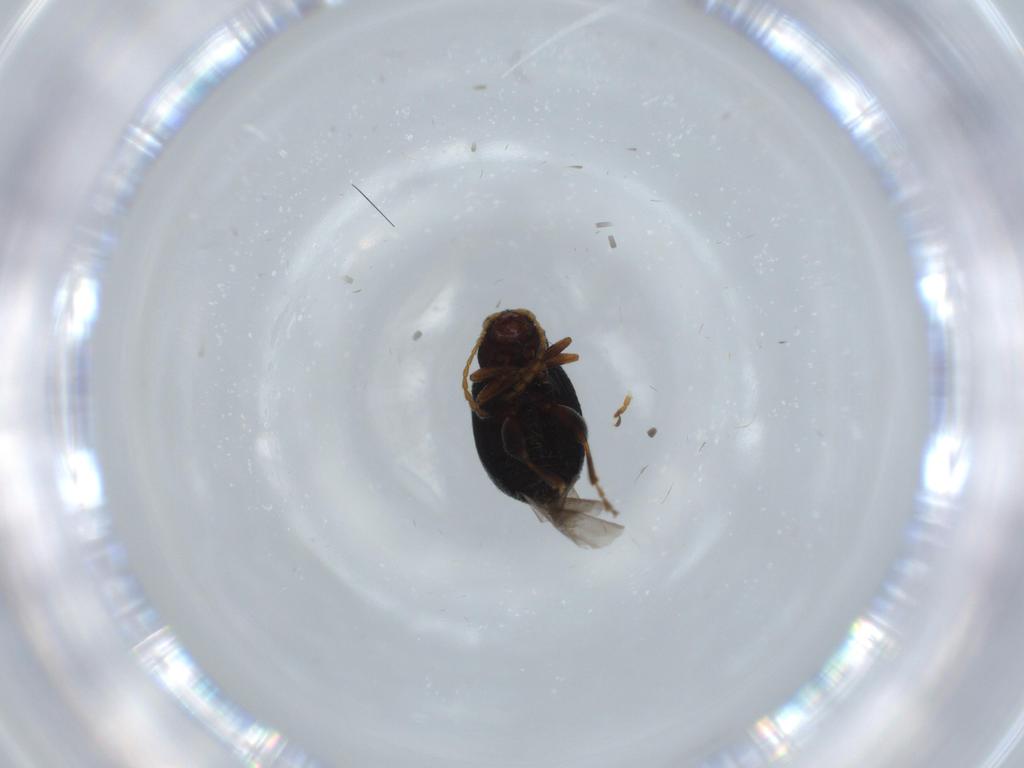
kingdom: Animalia
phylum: Arthropoda
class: Insecta
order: Coleoptera
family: Chrysomelidae
